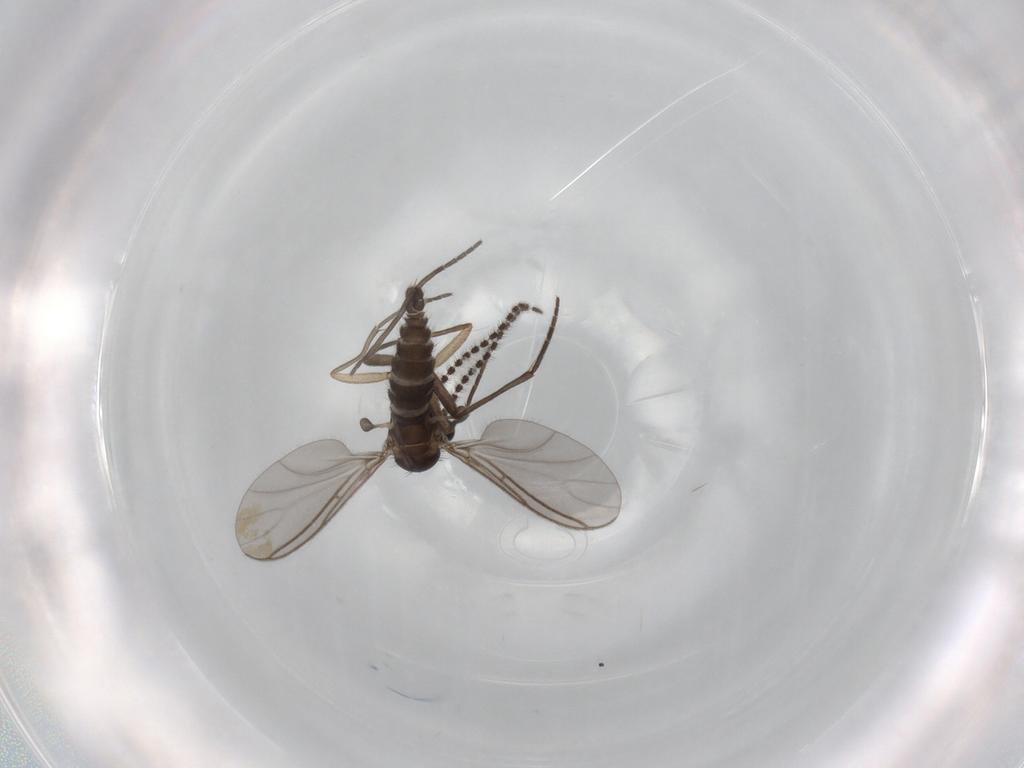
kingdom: Animalia
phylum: Arthropoda
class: Insecta
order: Diptera
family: Sciaridae
